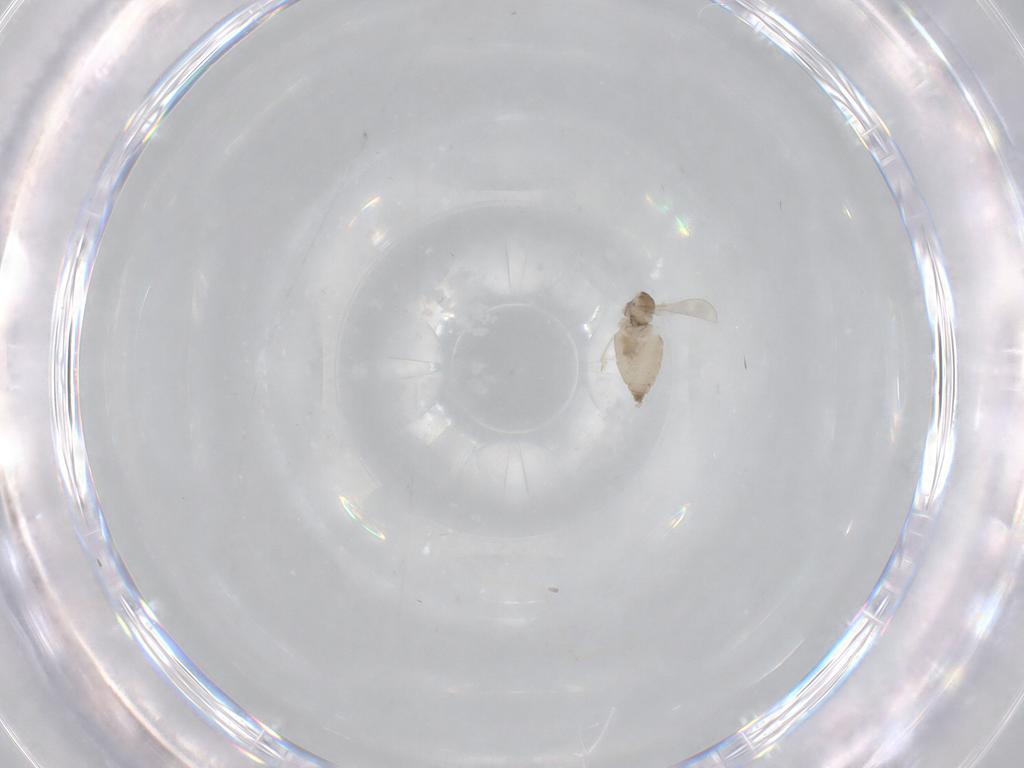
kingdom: Animalia
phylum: Arthropoda
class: Insecta
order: Diptera
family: Cecidomyiidae
